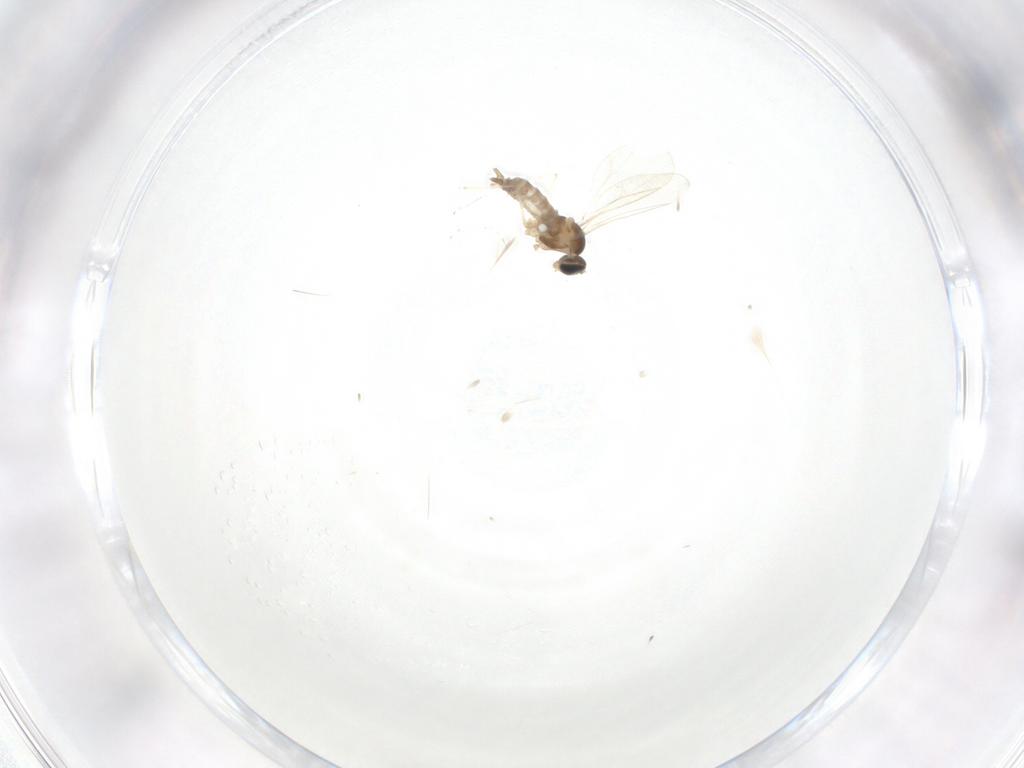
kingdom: Animalia
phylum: Arthropoda
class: Insecta
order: Diptera
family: Cecidomyiidae
